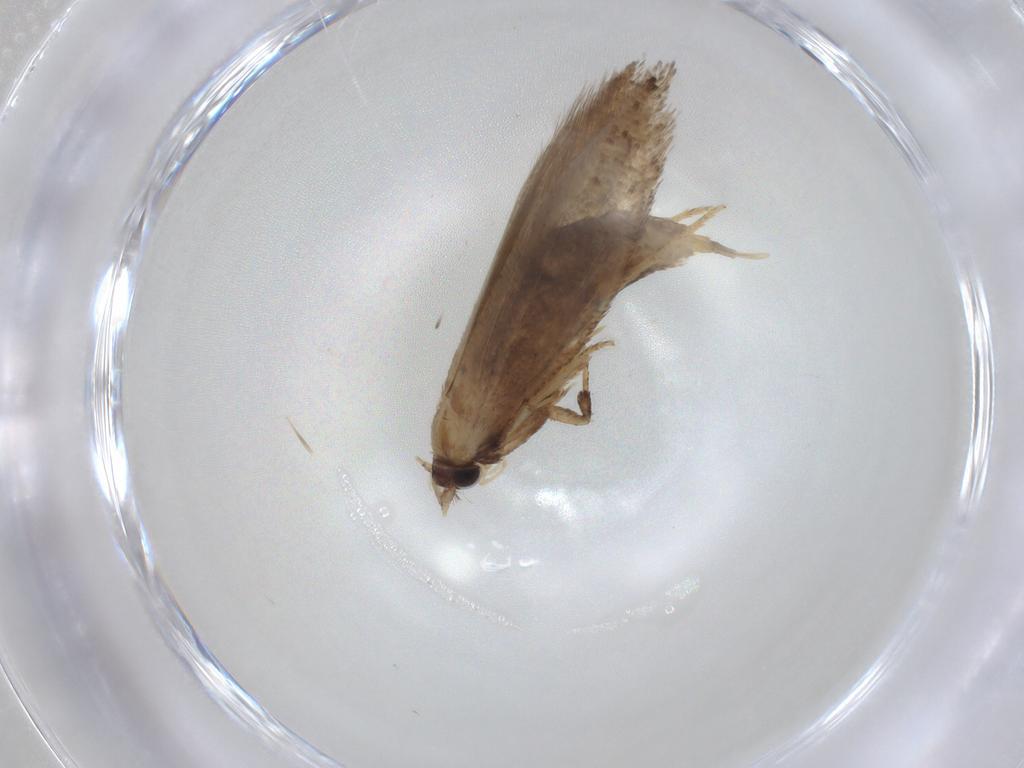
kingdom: Animalia
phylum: Arthropoda
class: Insecta
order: Lepidoptera
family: Nepticulidae
